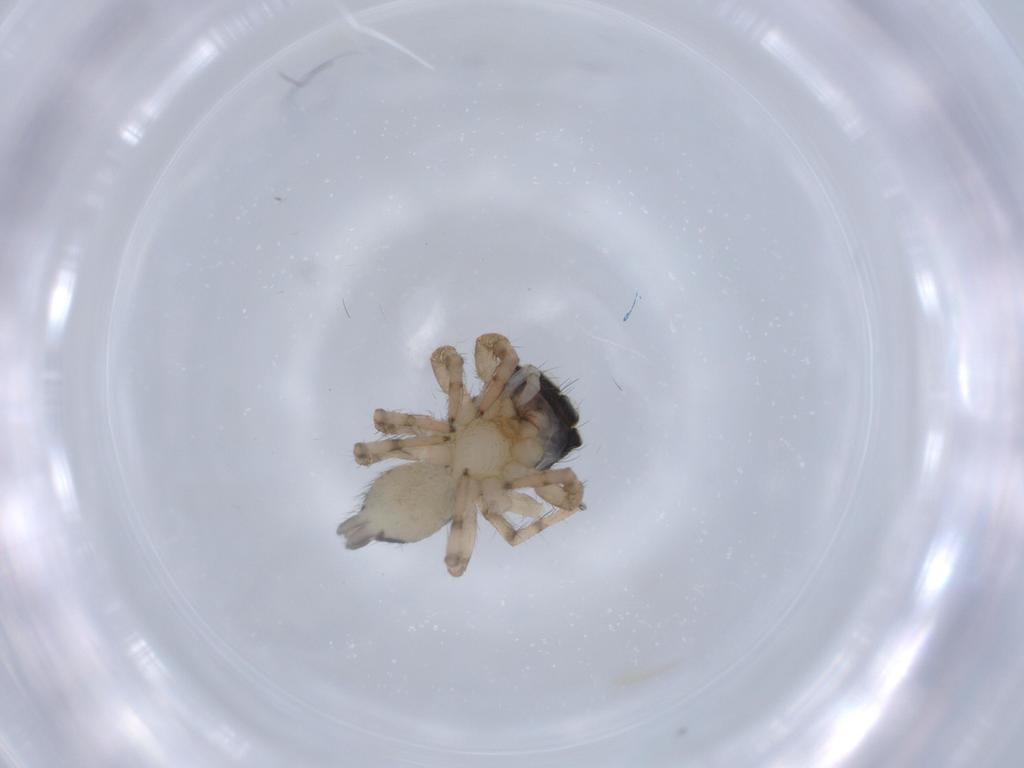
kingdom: Animalia
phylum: Arthropoda
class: Arachnida
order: Araneae
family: Salticidae
